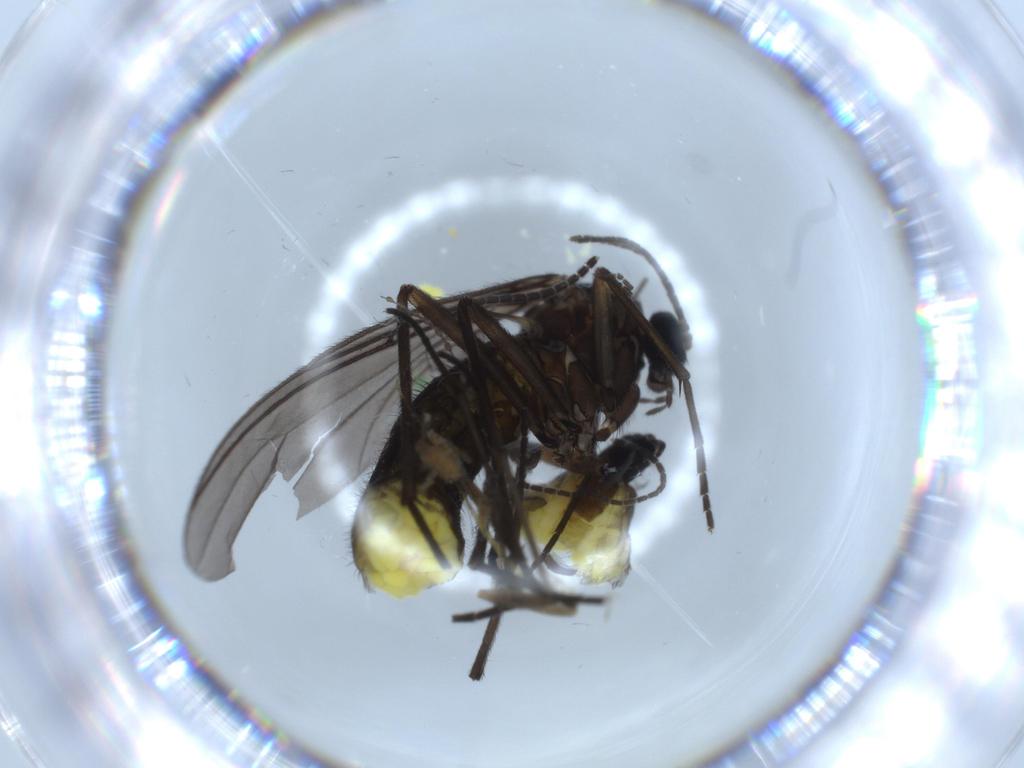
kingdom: Animalia
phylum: Arthropoda
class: Insecta
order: Diptera
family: Sciaridae
